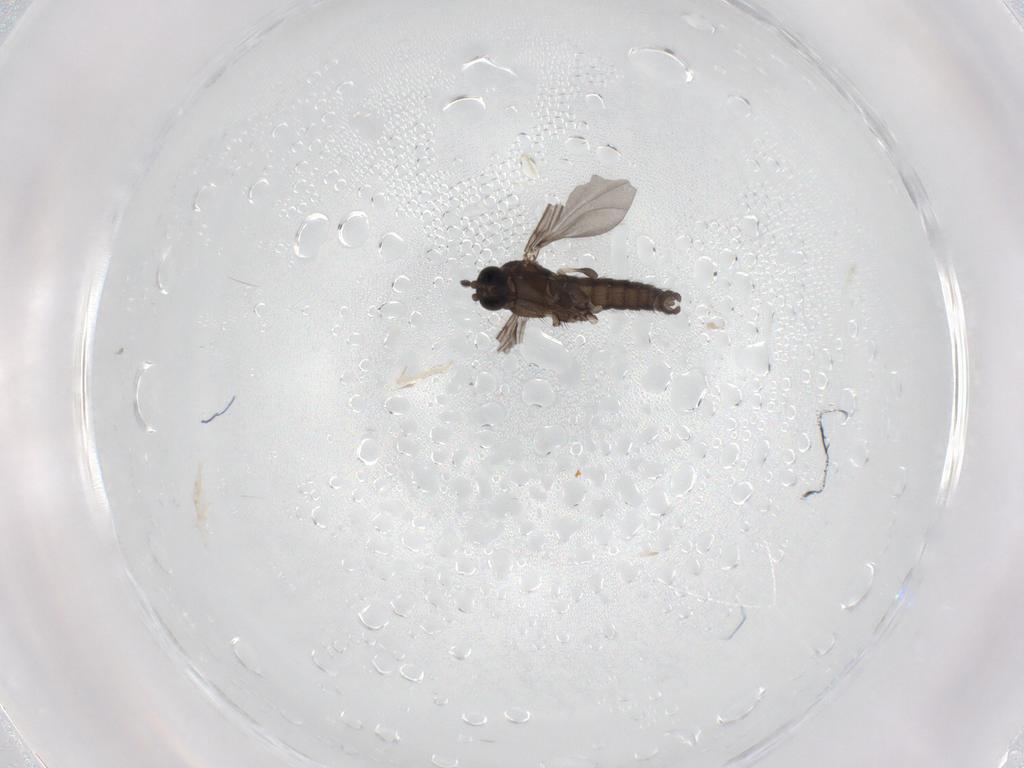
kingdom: Animalia
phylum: Arthropoda
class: Insecta
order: Diptera
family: Sciaridae
